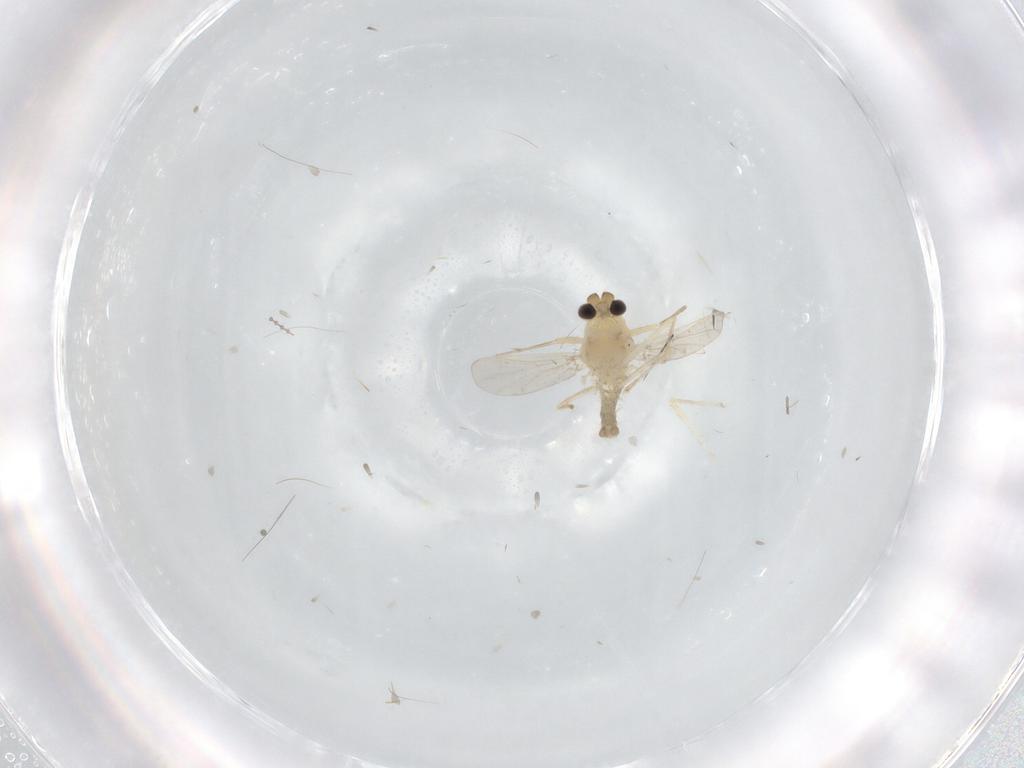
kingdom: Animalia
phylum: Arthropoda
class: Insecta
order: Diptera
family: Chironomidae
